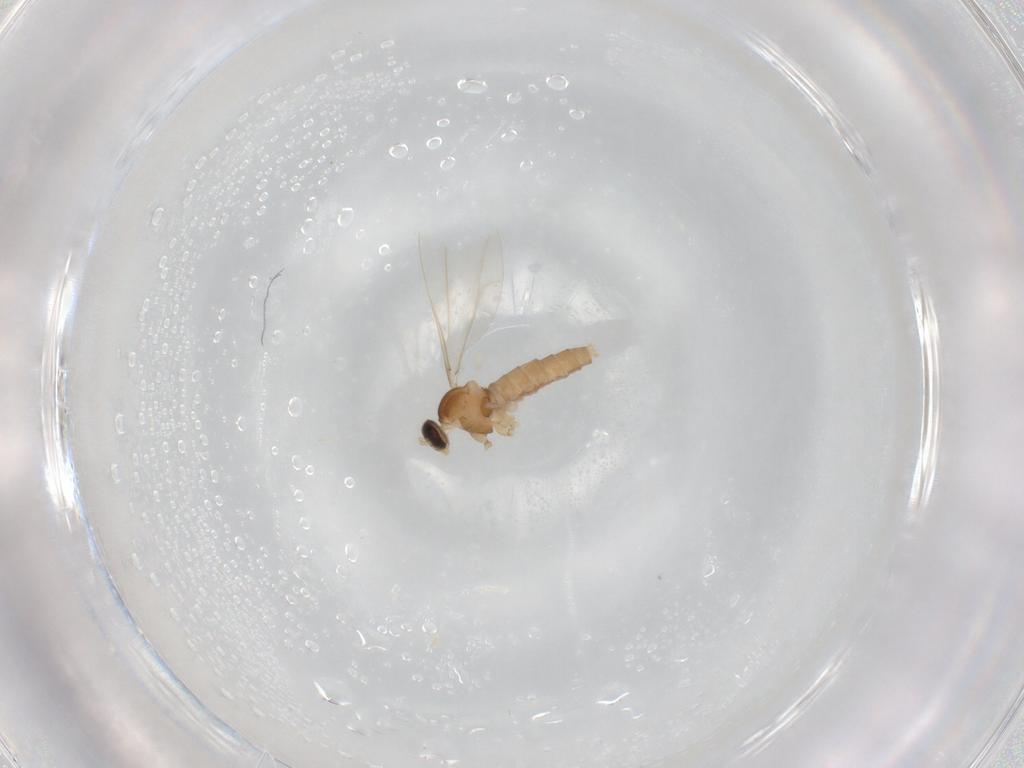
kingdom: Animalia
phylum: Arthropoda
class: Insecta
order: Diptera
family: Cecidomyiidae
